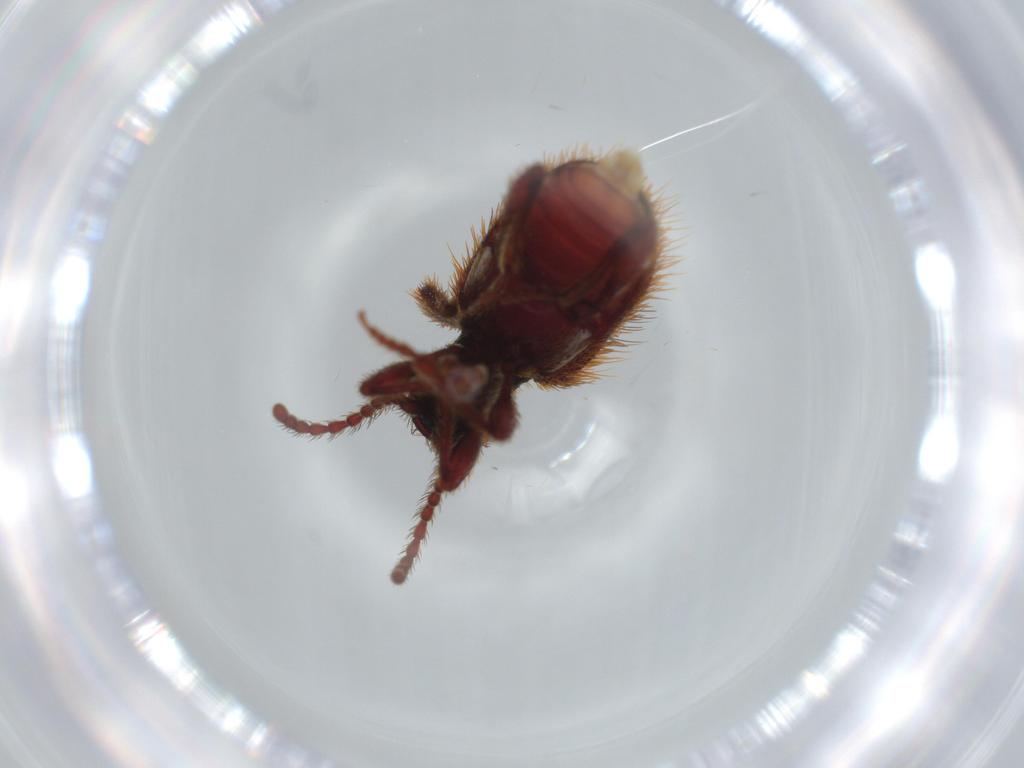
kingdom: Animalia
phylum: Arthropoda
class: Insecta
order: Coleoptera
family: Ptinidae
